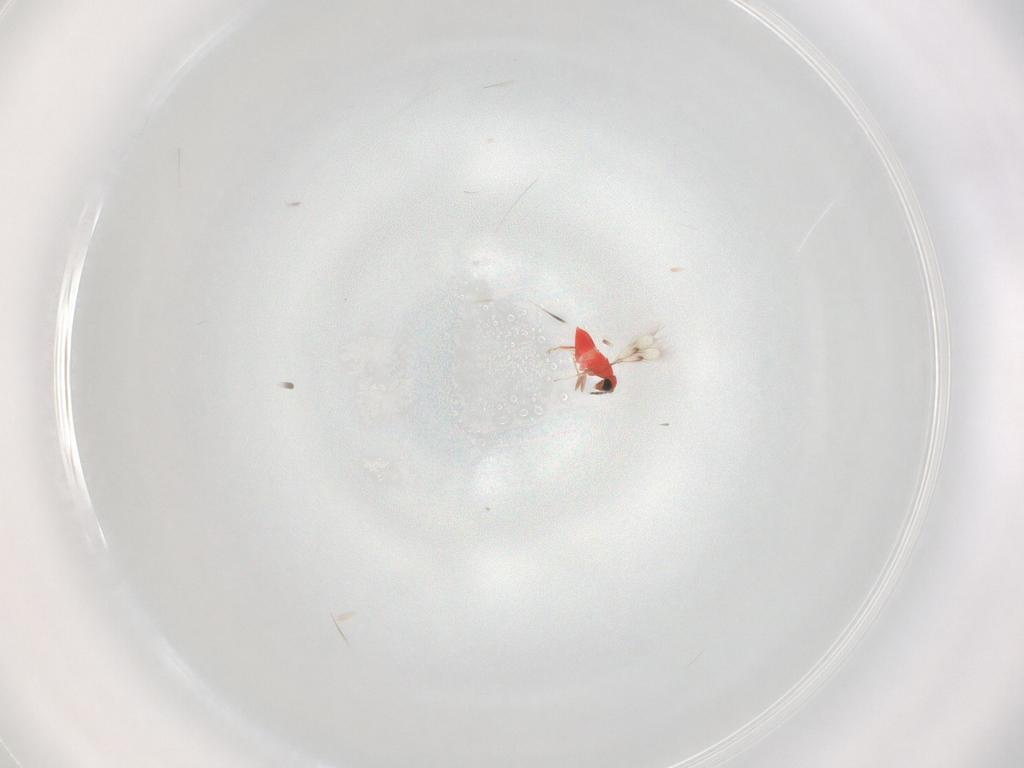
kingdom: Animalia
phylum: Arthropoda
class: Insecta
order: Hymenoptera
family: Trichogrammatidae
